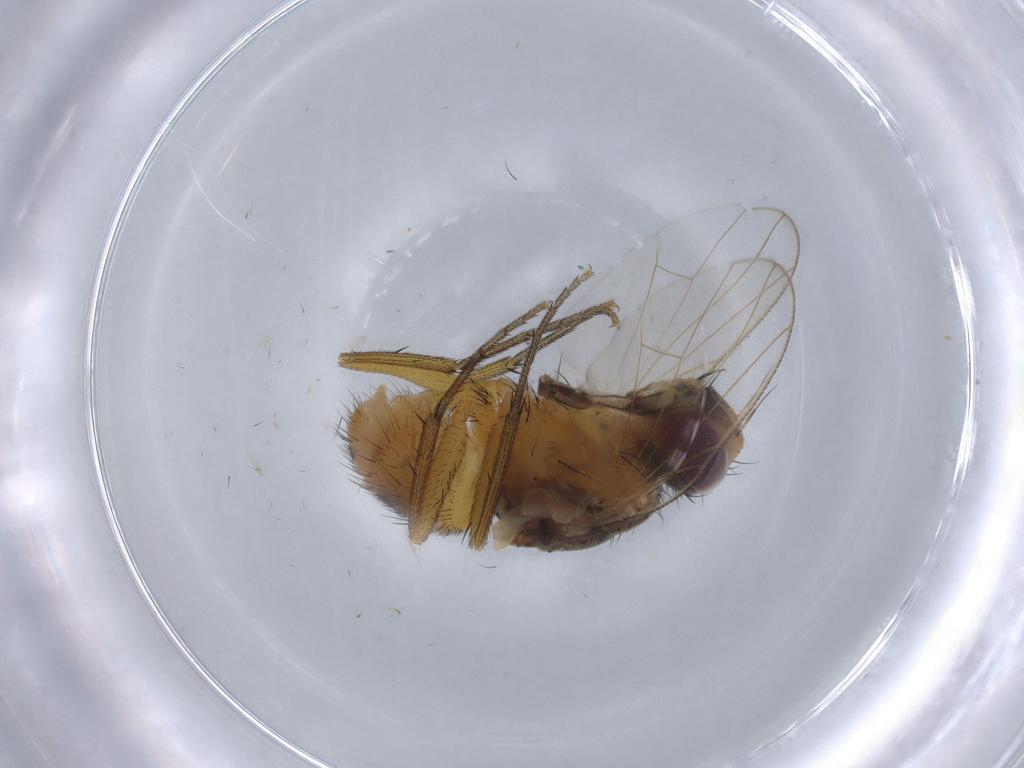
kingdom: Animalia
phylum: Arthropoda
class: Insecta
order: Diptera
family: Muscidae
